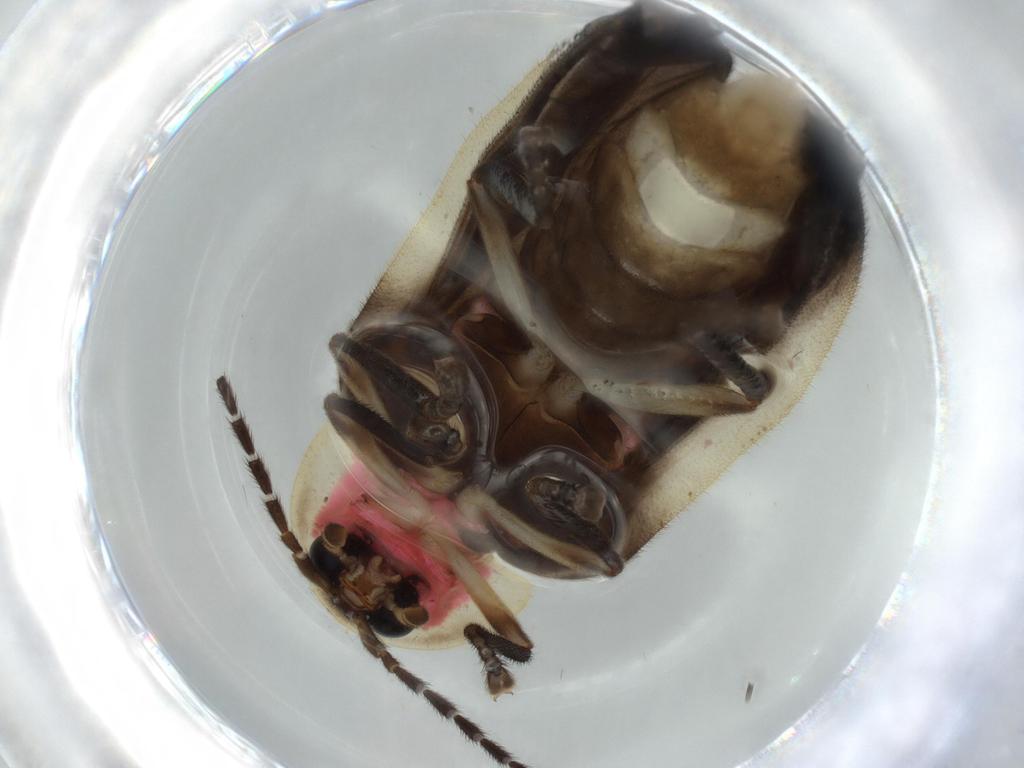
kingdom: Animalia
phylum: Arthropoda
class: Insecta
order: Coleoptera
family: Lampyridae
